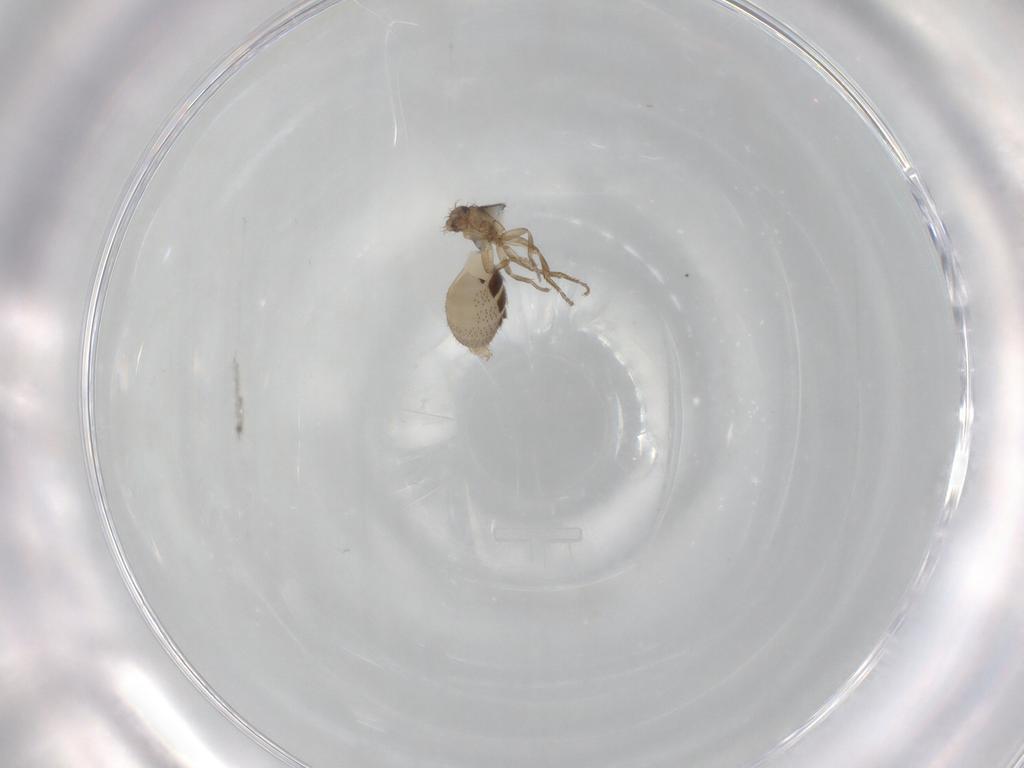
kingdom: Animalia
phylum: Arthropoda
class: Insecta
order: Diptera
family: Phoridae
